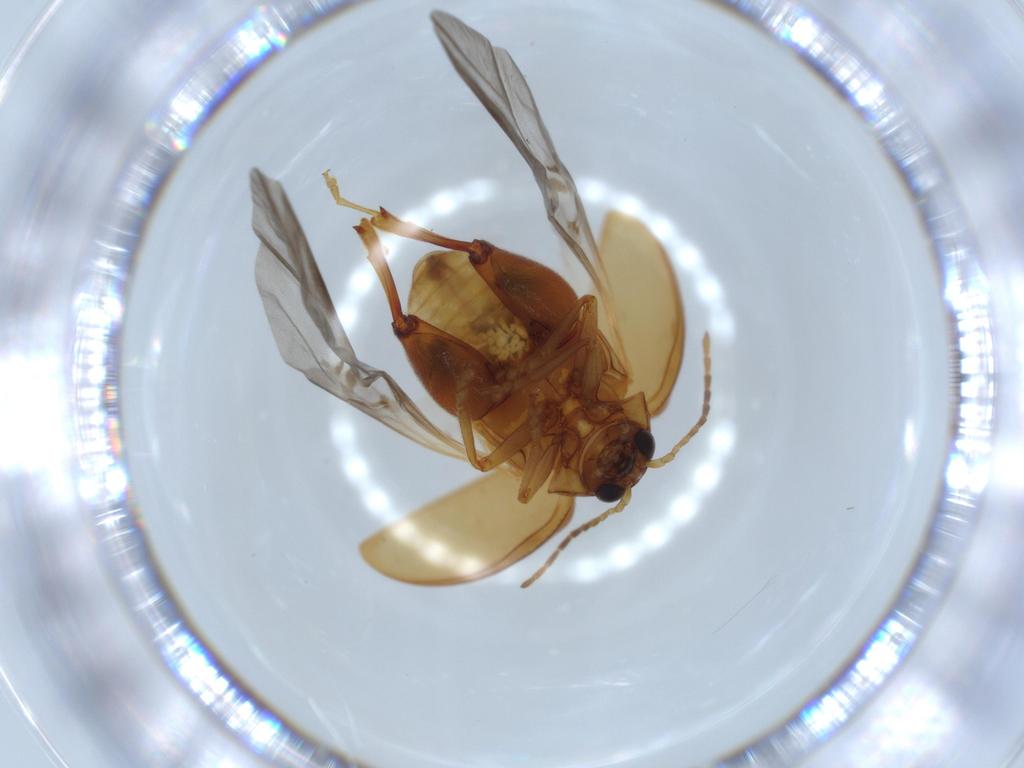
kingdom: Animalia
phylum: Arthropoda
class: Insecta
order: Coleoptera
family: Chrysomelidae
